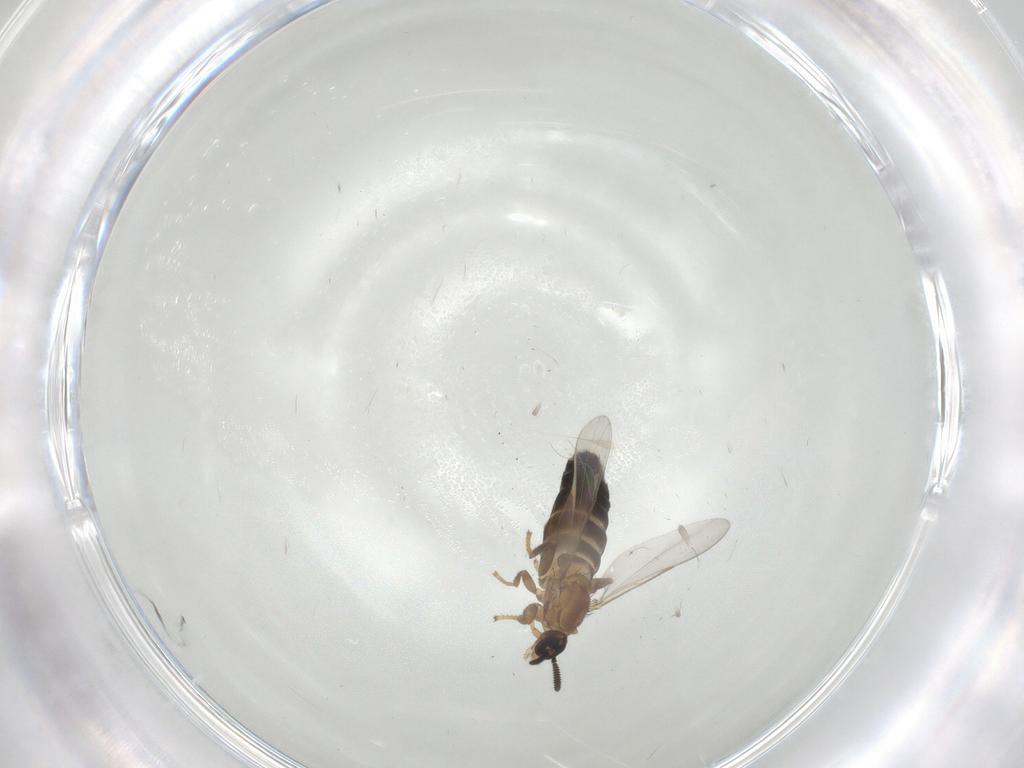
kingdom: Animalia
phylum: Arthropoda
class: Insecta
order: Diptera
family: Scatopsidae
